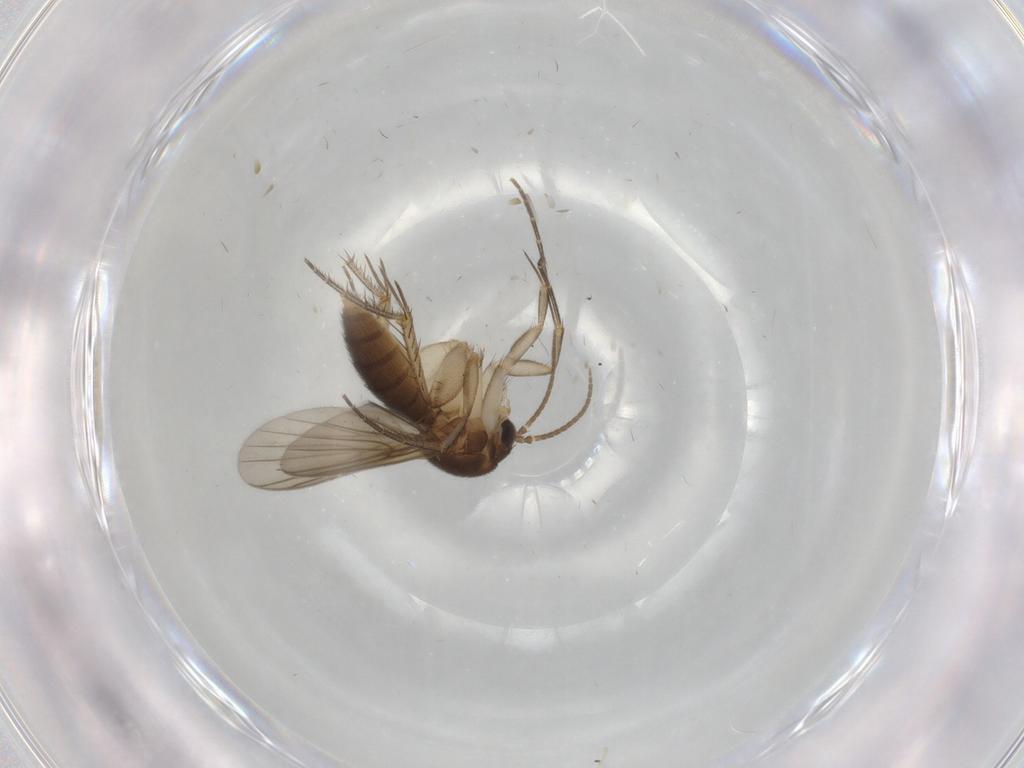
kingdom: Animalia
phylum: Arthropoda
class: Insecta
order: Diptera
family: Mycetophilidae
